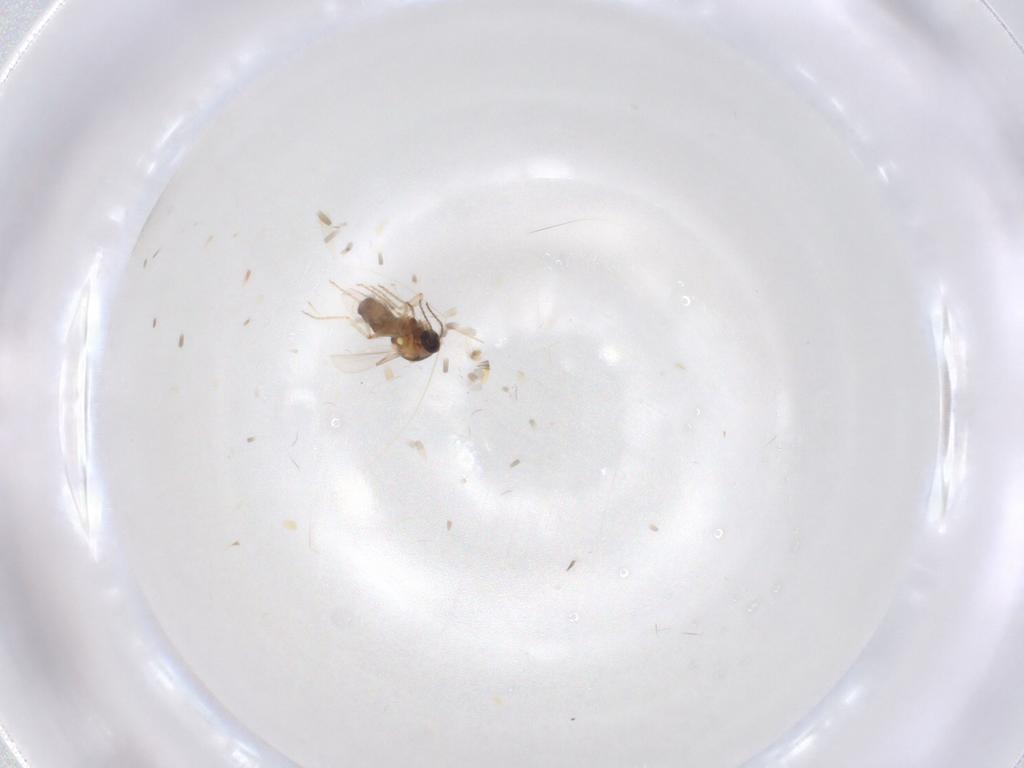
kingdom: Animalia
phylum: Arthropoda
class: Insecta
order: Diptera
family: Ceratopogonidae
